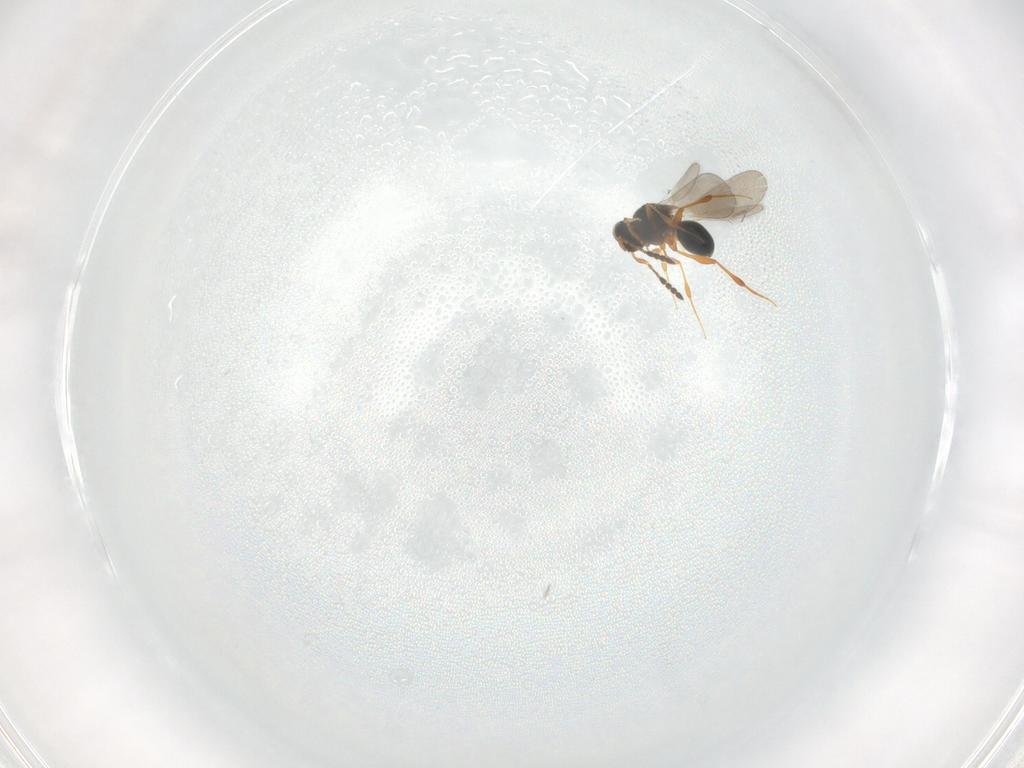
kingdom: Animalia
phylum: Arthropoda
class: Insecta
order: Hymenoptera
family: Platygastridae
